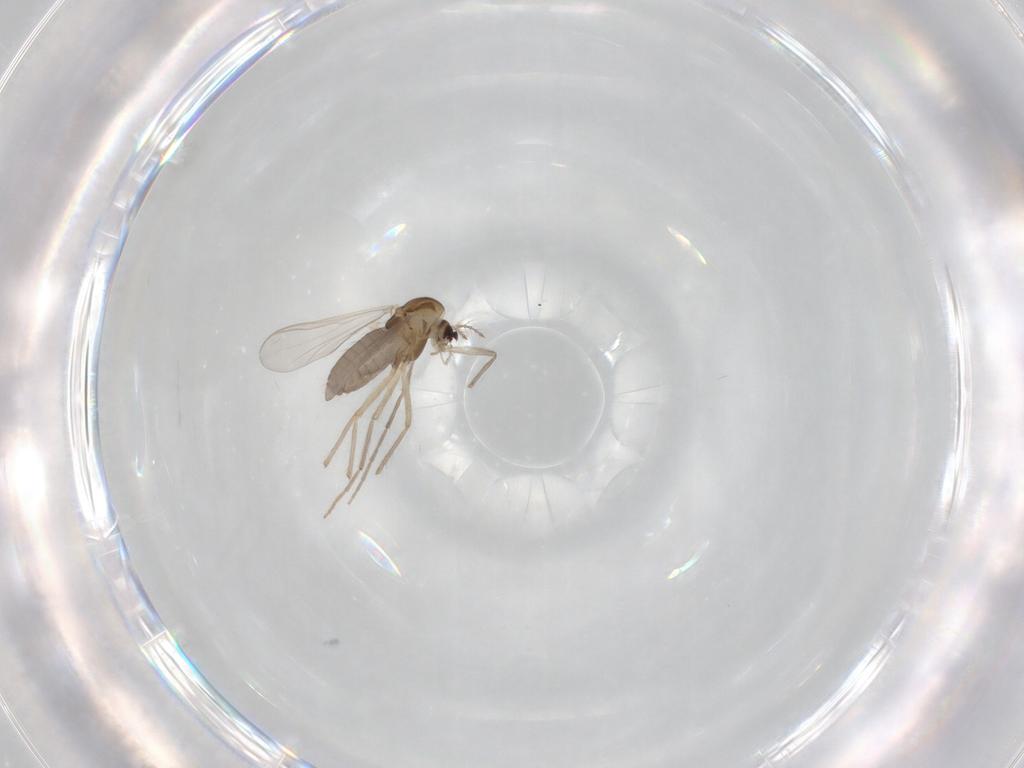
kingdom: Animalia
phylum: Arthropoda
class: Insecta
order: Diptera
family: Chironomidae
